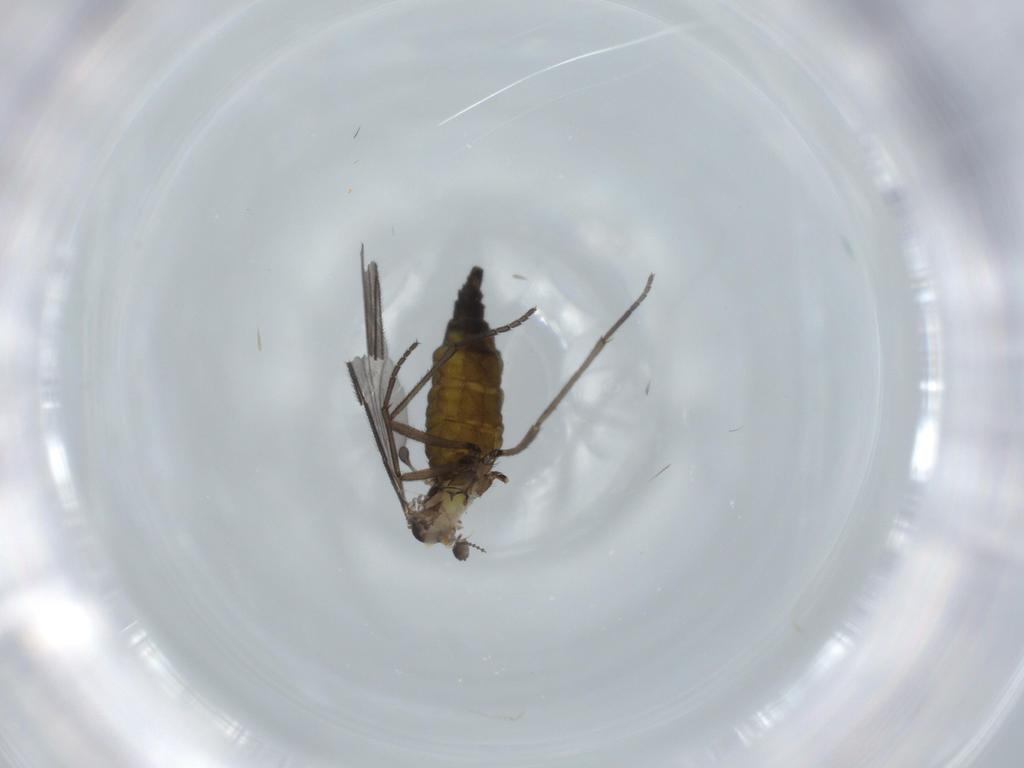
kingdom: Animalia
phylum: Arthropoda
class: Insecta
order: Diptera
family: Sciaridae
